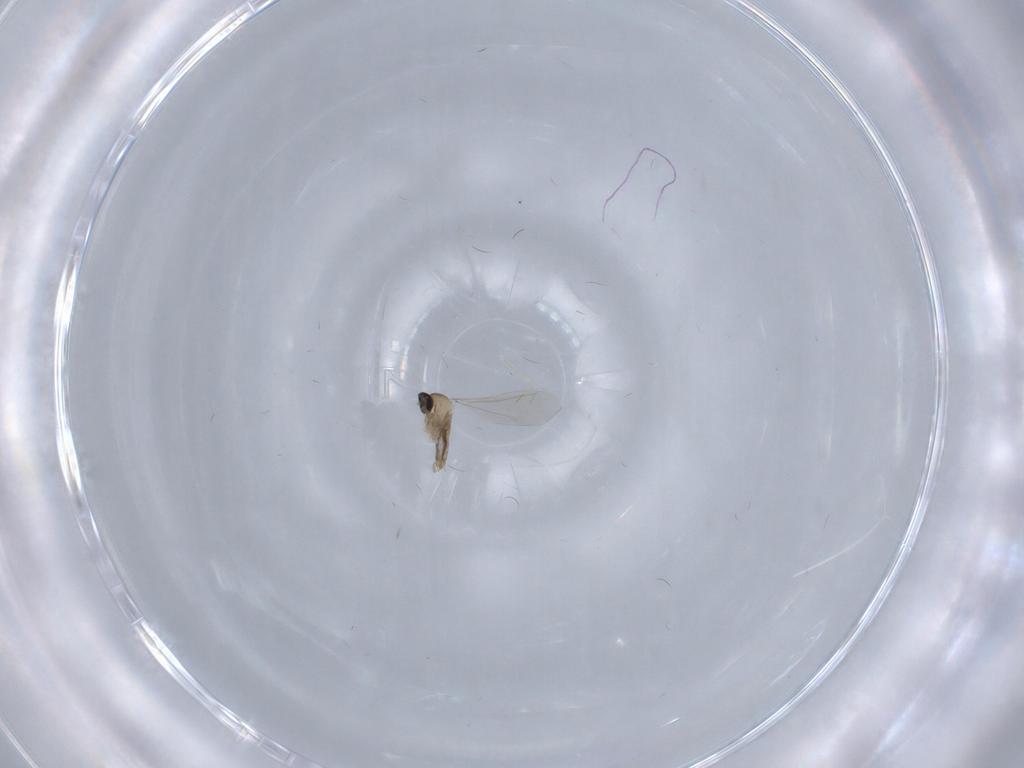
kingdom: Animalia
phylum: Arthropoda
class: Insecta
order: Diptera
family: Cecidomyiidae
